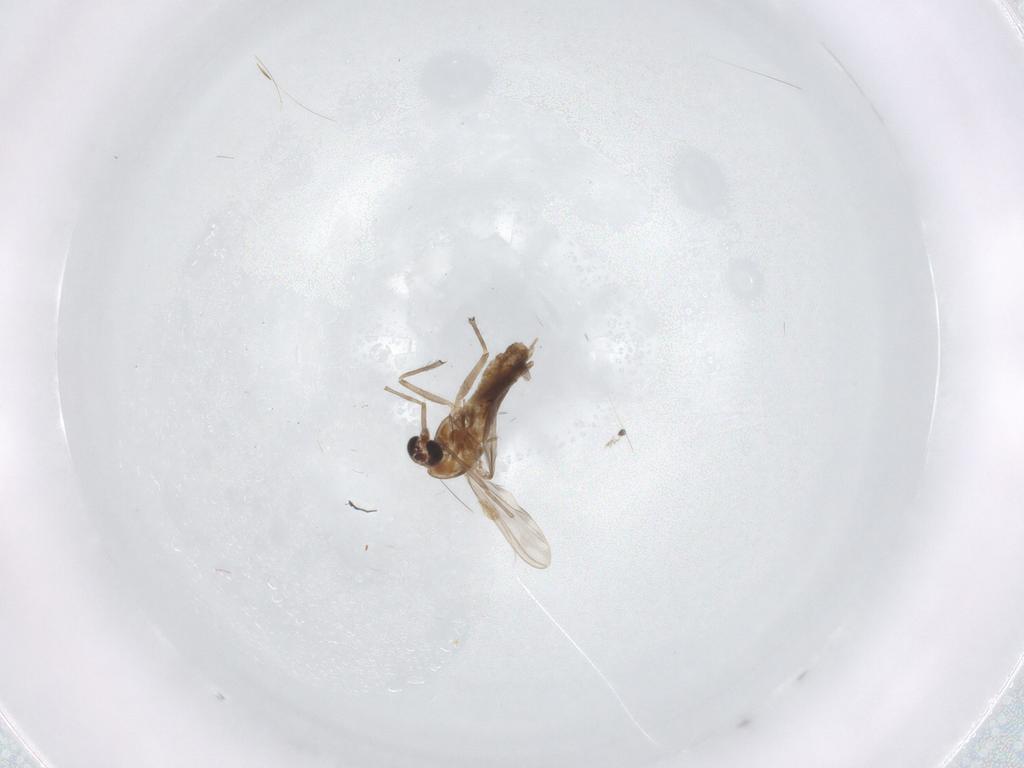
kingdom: Animalia
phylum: Arthropoda
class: Insecta
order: Diptera
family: Chironomidae
